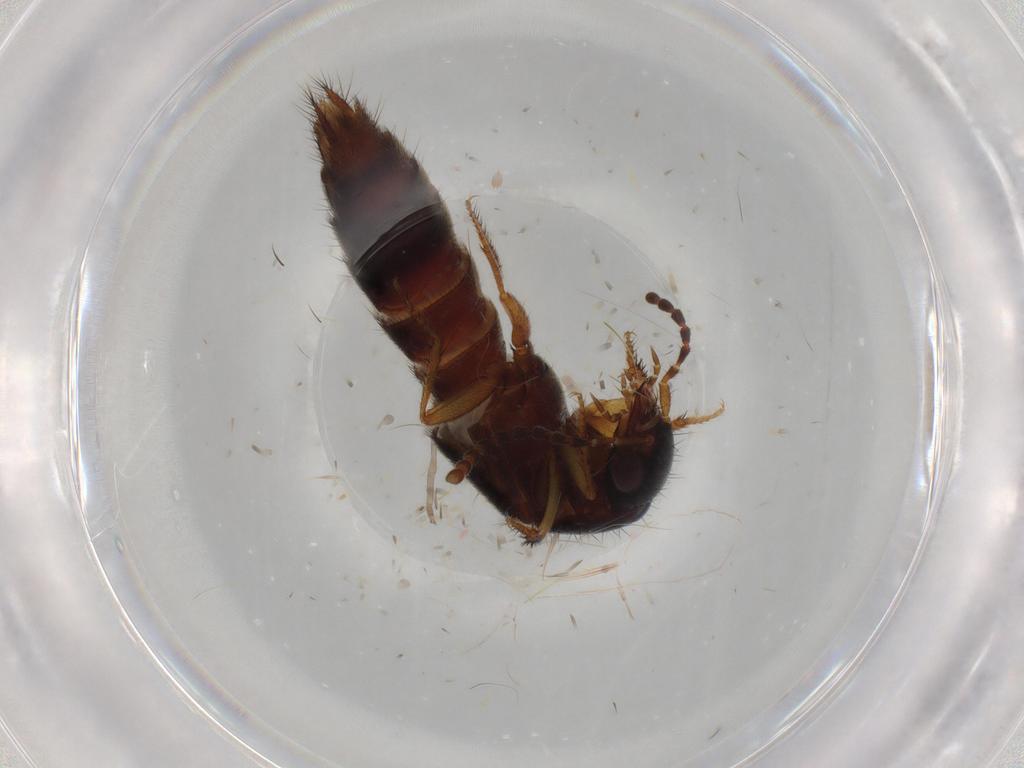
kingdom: Animalia
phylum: Arthropoda
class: Insecta
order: Coleoptera
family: Staphylinidae
